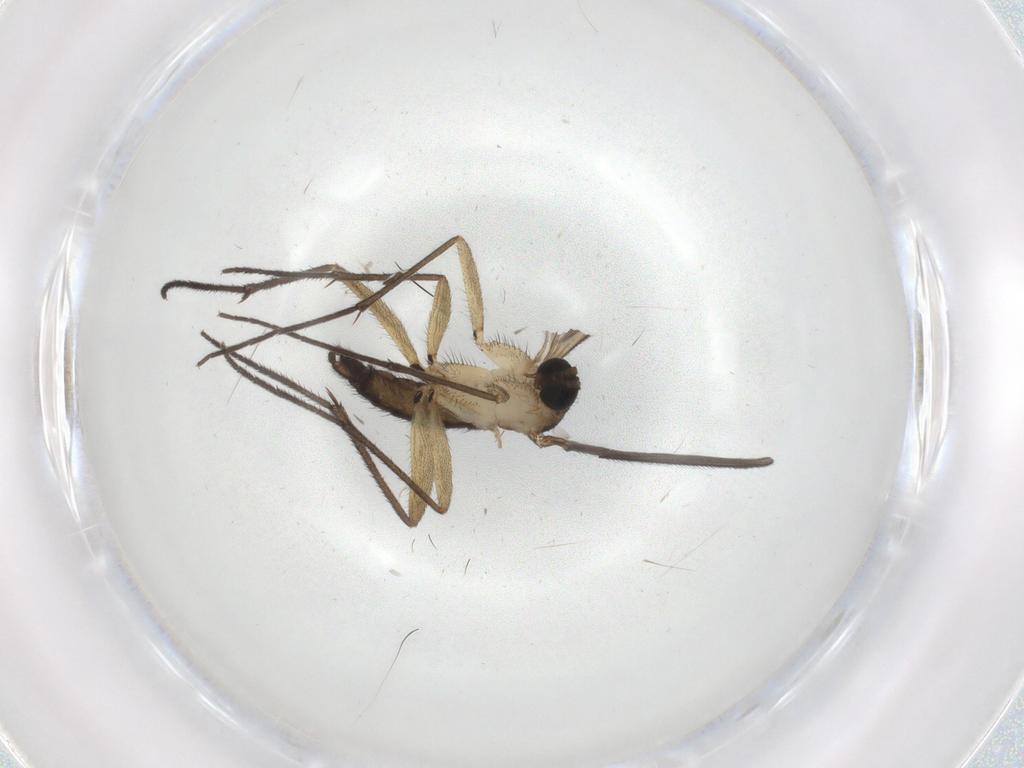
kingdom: Animalia
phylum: Arthropoda
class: Insecta
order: Diptera
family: Sciaridae
